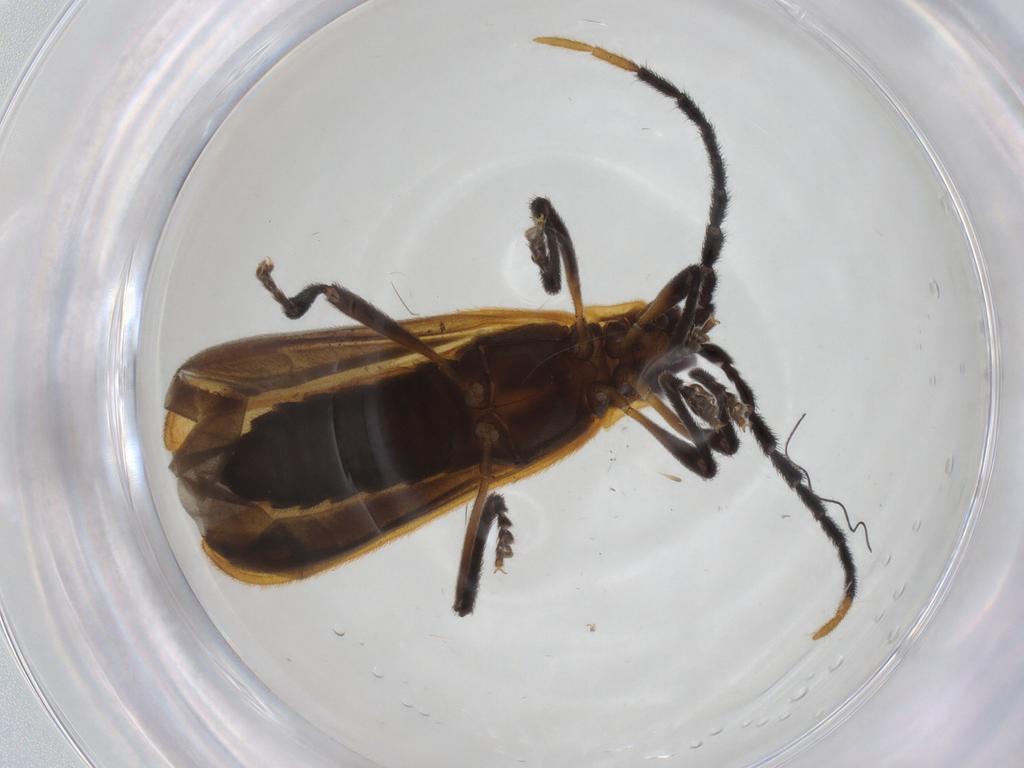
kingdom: Animalia
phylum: Arthropoda
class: Insecta
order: Coleoptera
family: Lycidae
